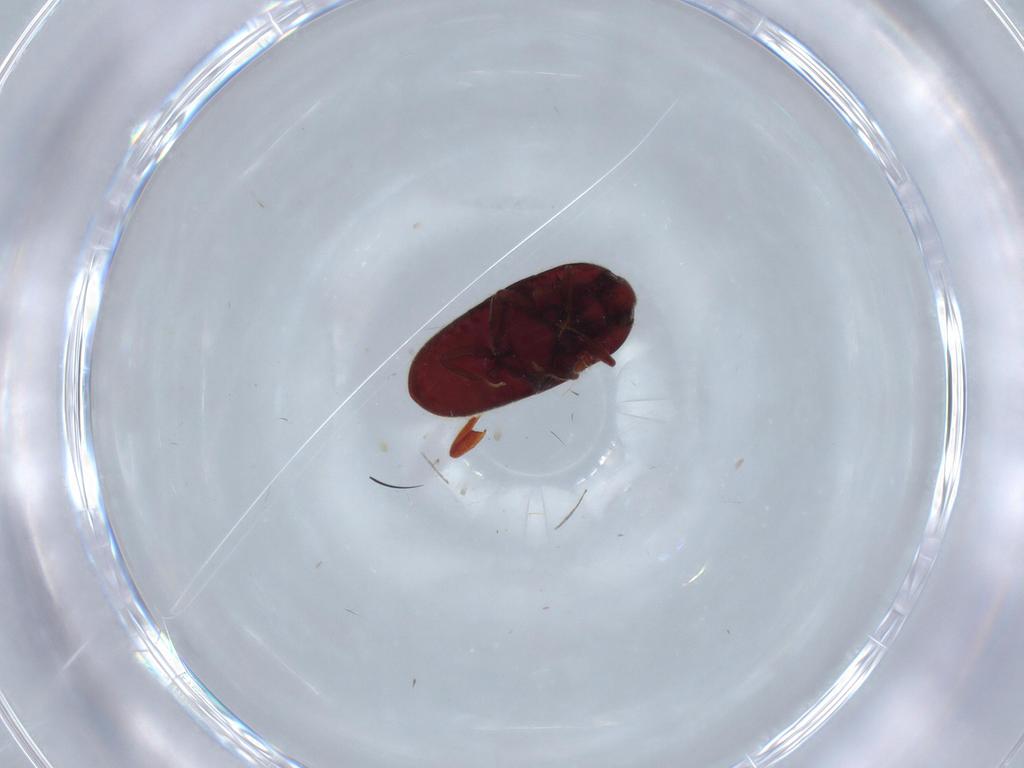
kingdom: Animalia
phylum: Arthropoda
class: Insecta
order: Coleoptera
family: Throscidae
